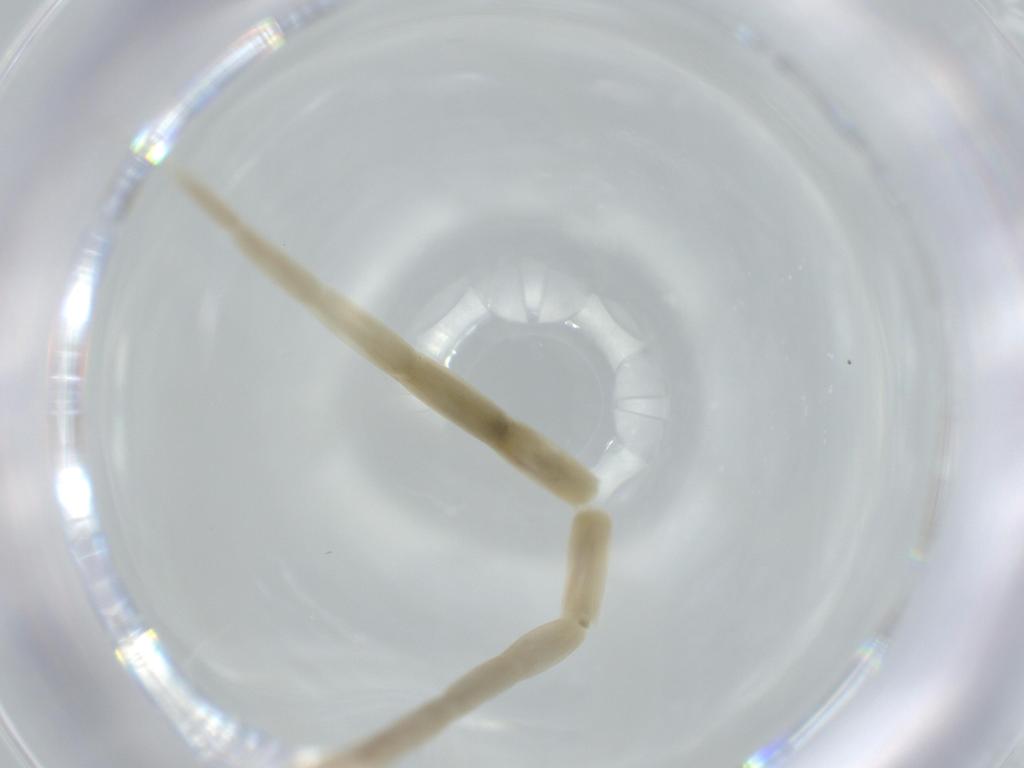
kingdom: Animalia
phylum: Arthropoda
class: Insecta
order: Diptera
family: Ceratopogonidae
